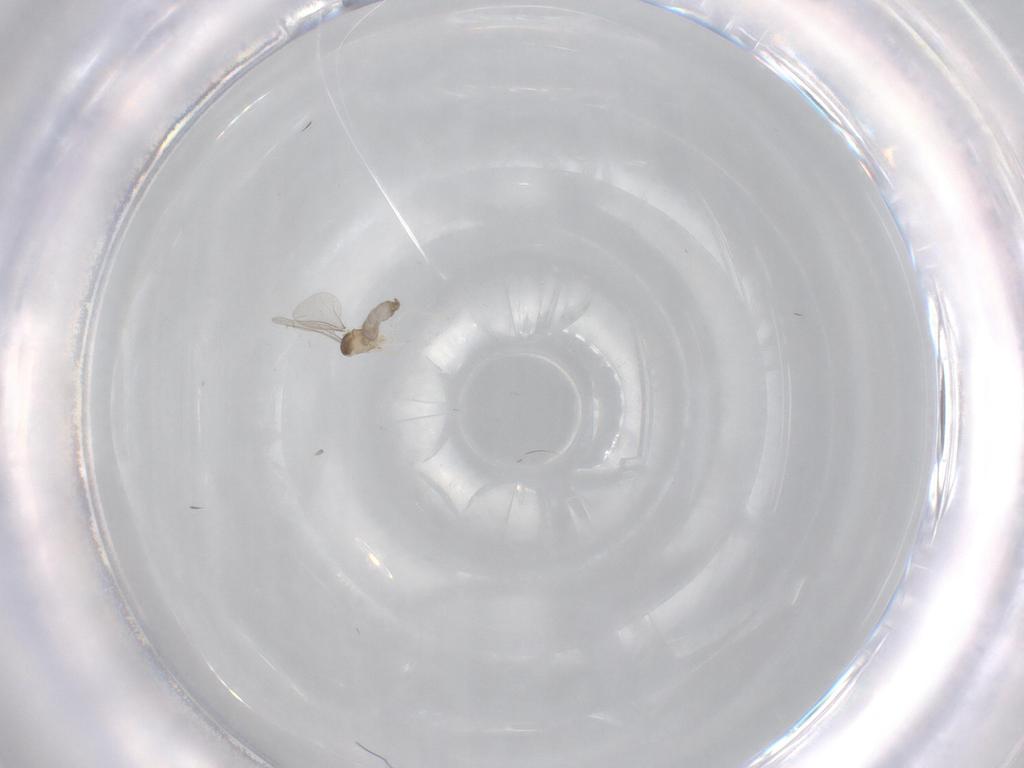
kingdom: Animalia
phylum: Arthropoda
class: Insecta
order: Diptera
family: Cecidomyiidae
